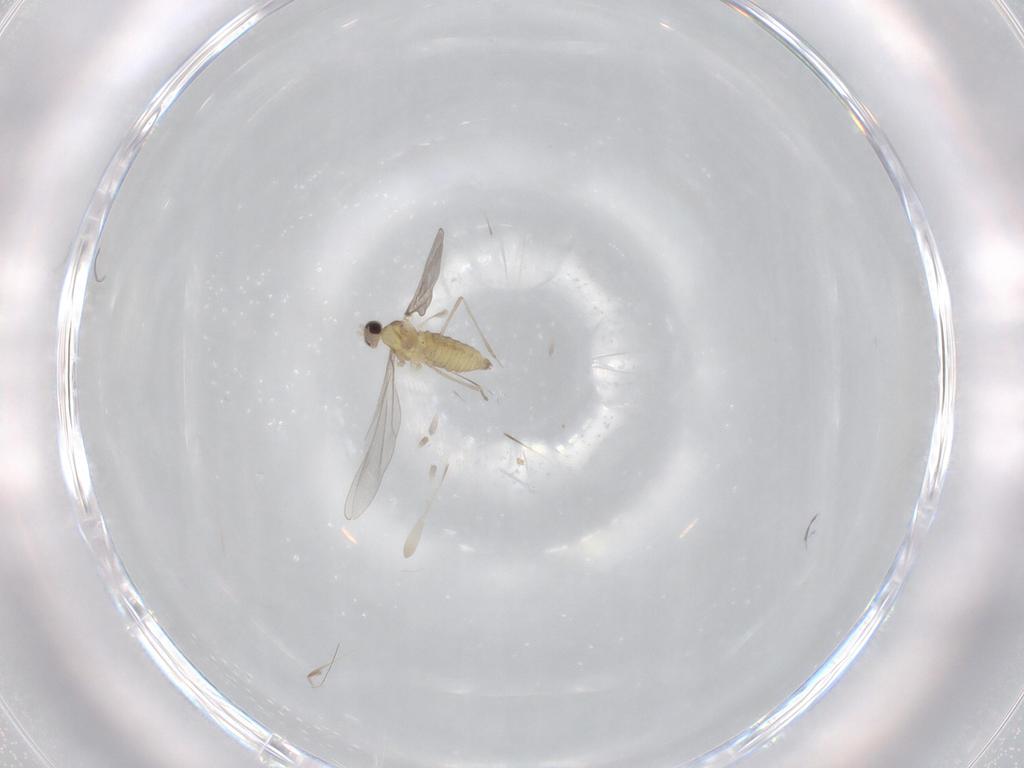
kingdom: Animalia
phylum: Arthropoda
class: Insecta
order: Diptera
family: Cecidomyiidae
